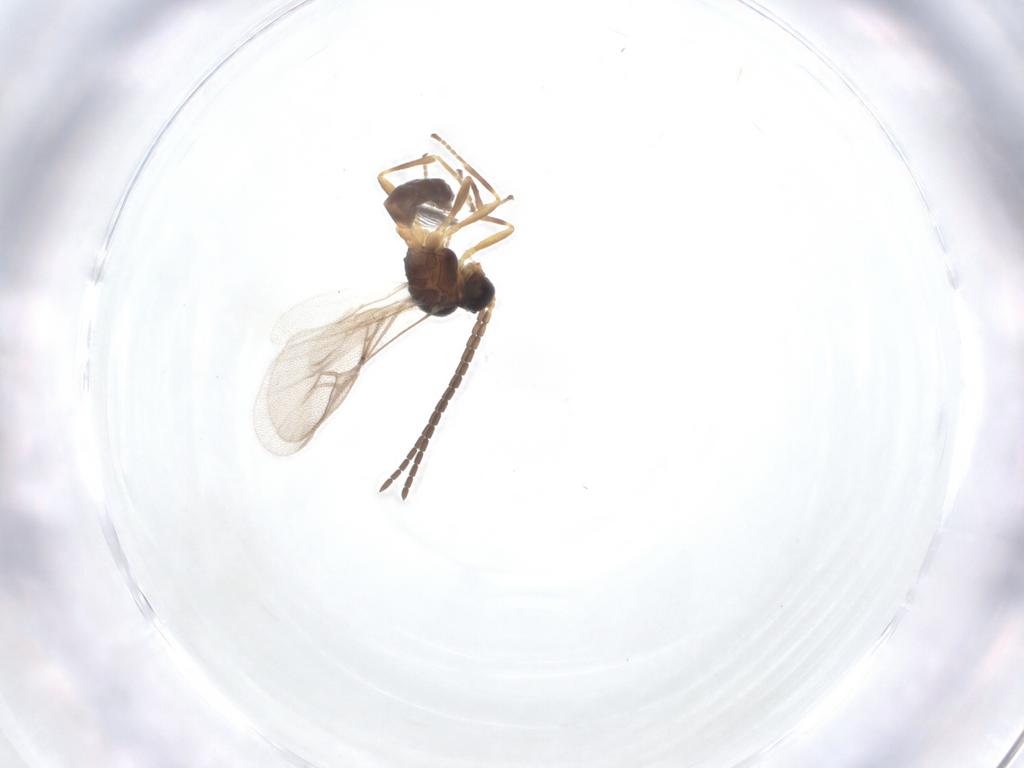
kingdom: Animalia
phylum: Arthropoda
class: Insecta
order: Hymenoptera
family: Braconidae
